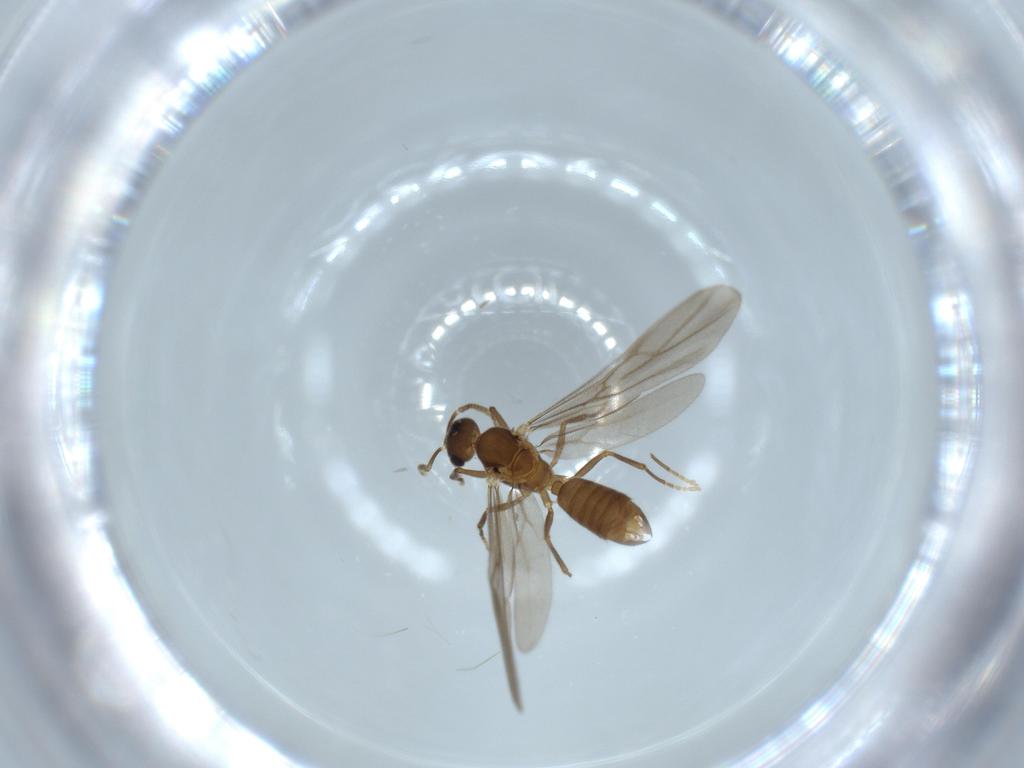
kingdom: Animalia
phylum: Arthropoda
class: Insecta
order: Hymenoptera
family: Formicidae
